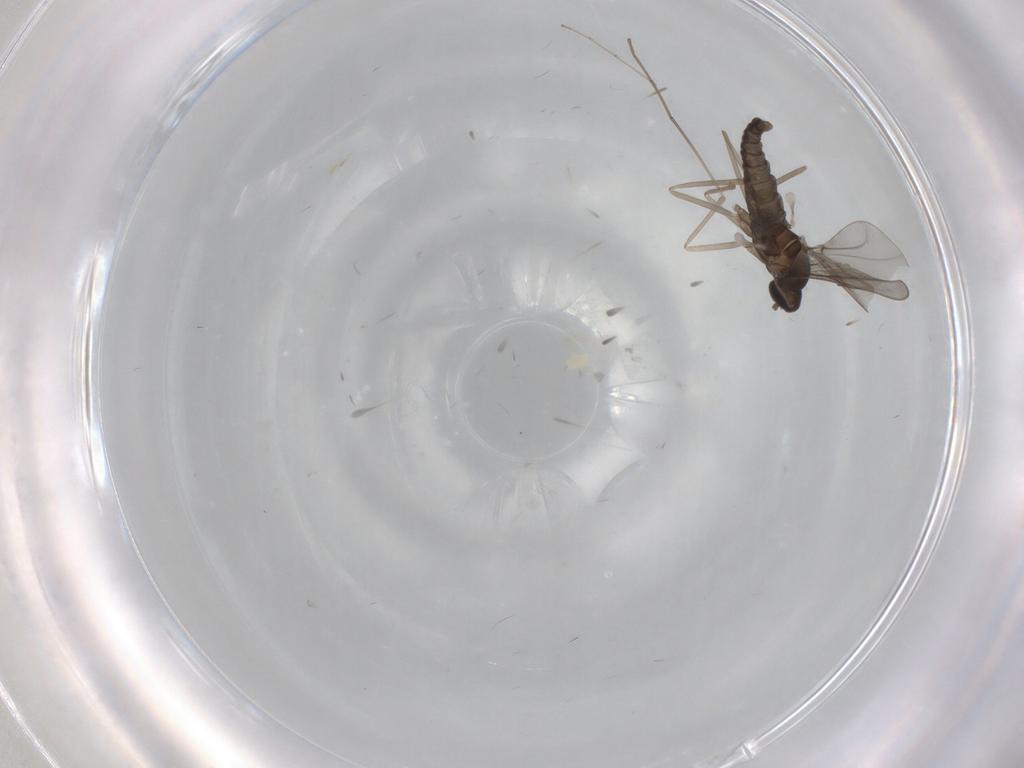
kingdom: Animalia
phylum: Arthropoda
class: Insecta
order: Diptera
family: Cecidomyiidae
